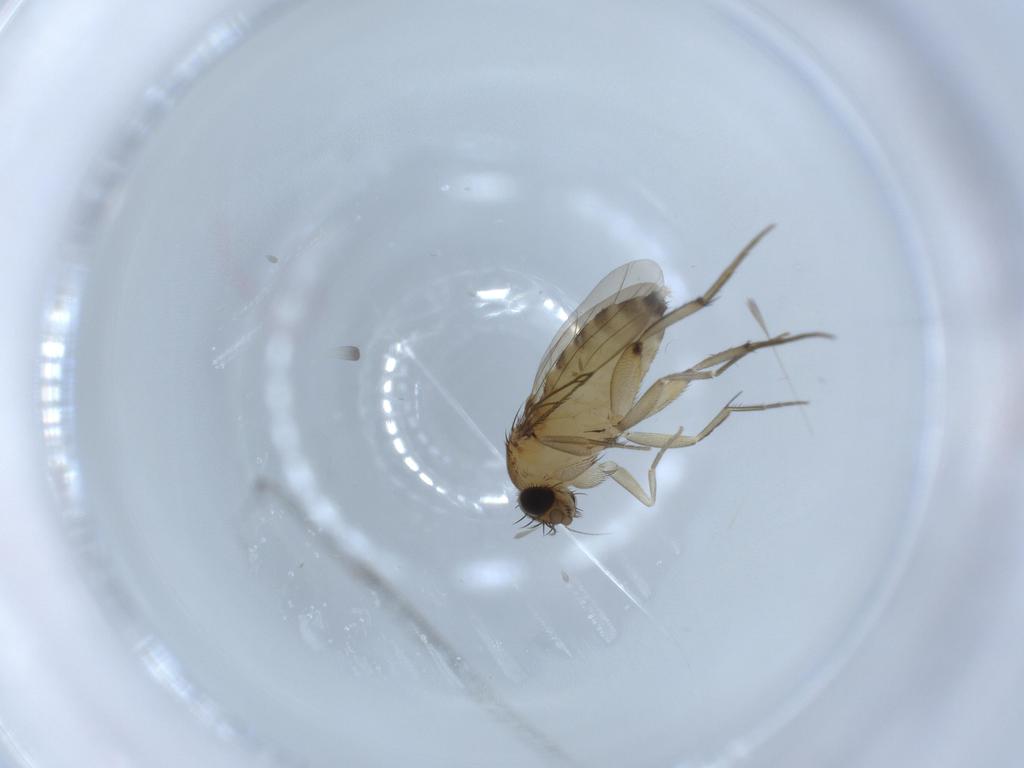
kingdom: Animalia
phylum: Arthropoda
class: Insecta
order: Diptera
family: Phoridae
